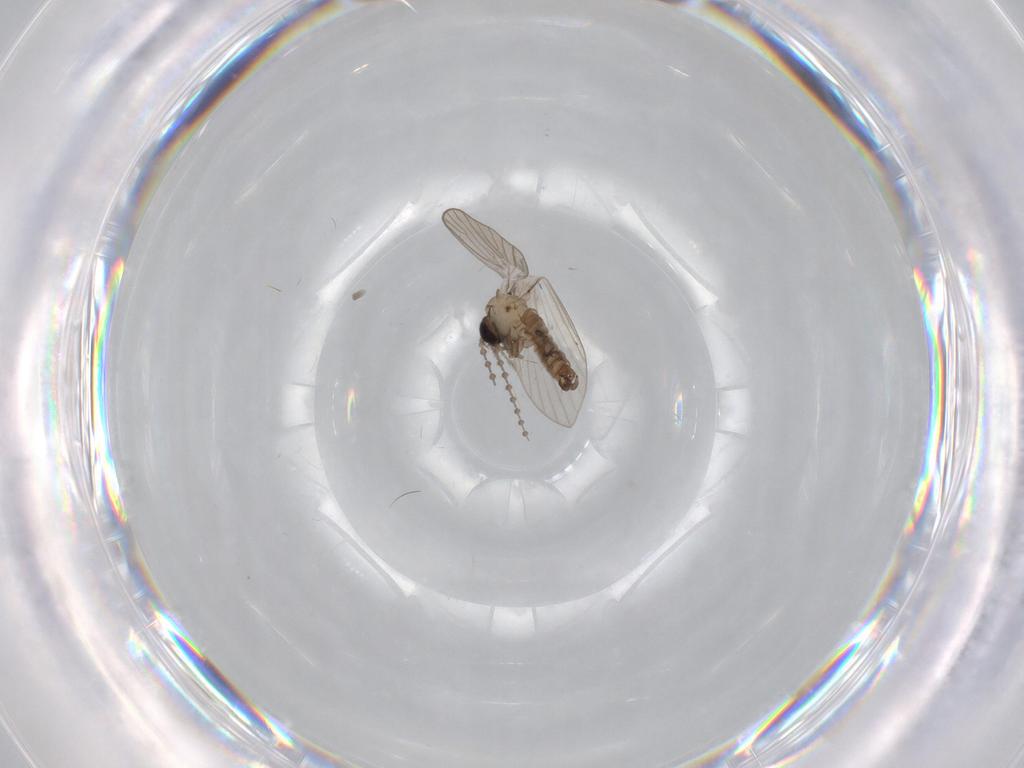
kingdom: Animalia
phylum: Arthropoda
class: Insecta
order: Diptera
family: Psychodidae
